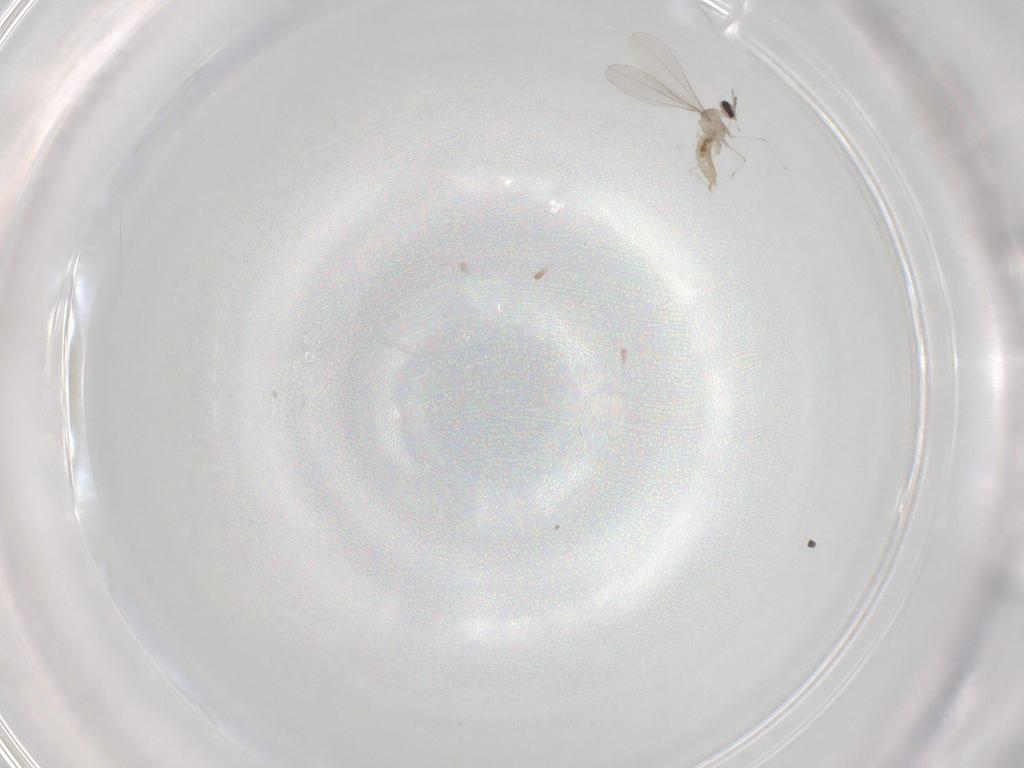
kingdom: Animalia
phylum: Arthropoda
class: Insecta
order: Diptera
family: Cecidomyiidae
